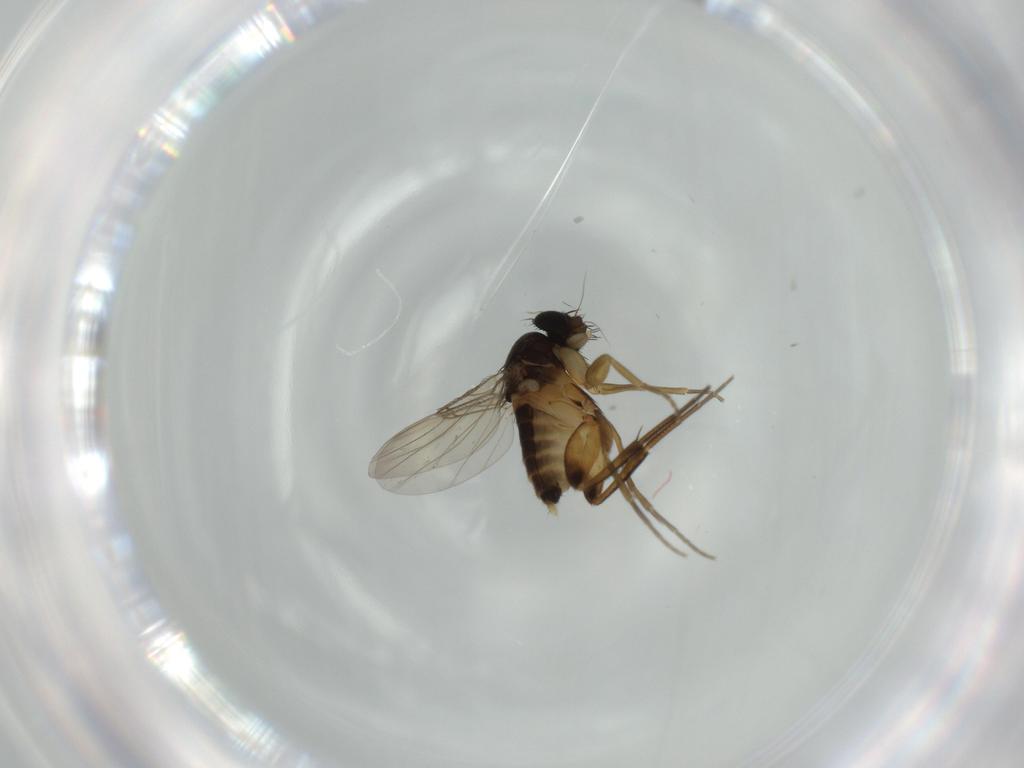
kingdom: Animalia
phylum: Arthropoda
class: Insecta
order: Diptera
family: Phoridae
